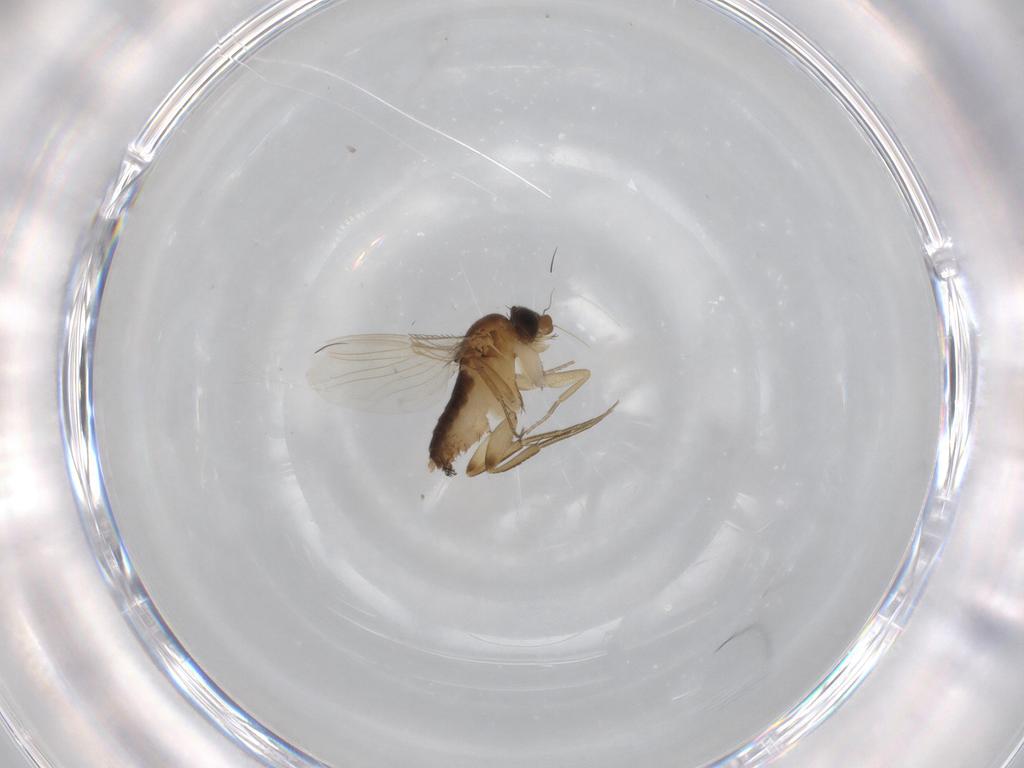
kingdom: Animalia
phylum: Arthropoda
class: Insecta
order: Diptera
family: Phoridae
